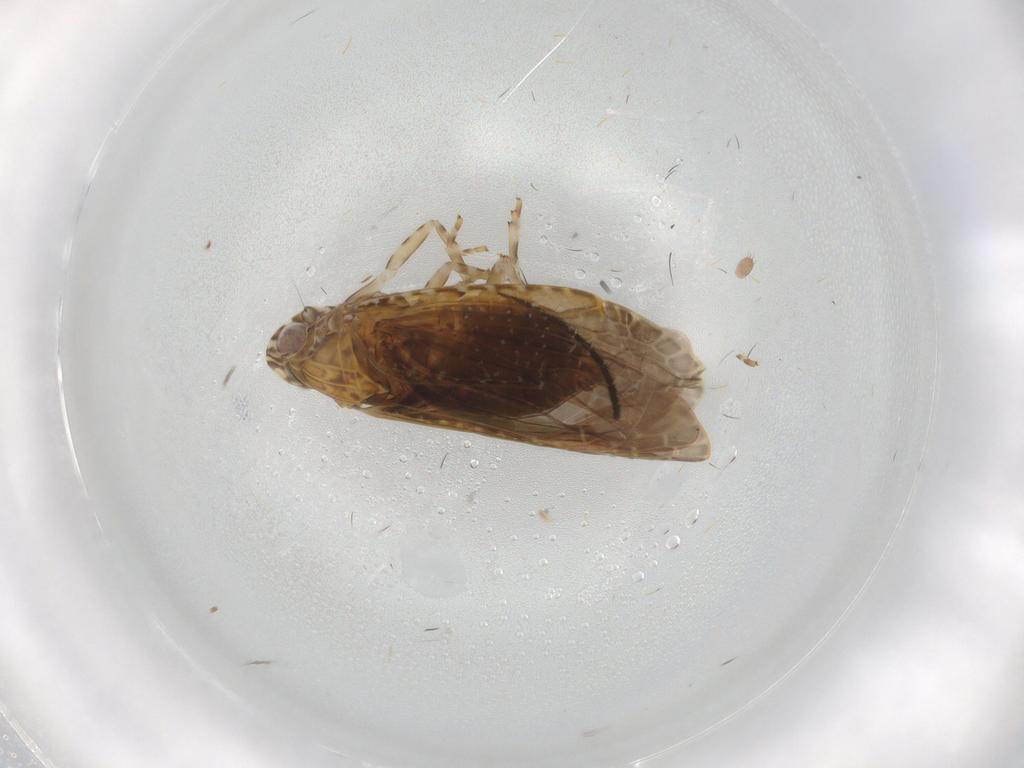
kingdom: Animalia
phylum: Arthropoda
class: Insecta
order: Hemiptera
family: Achilidae
